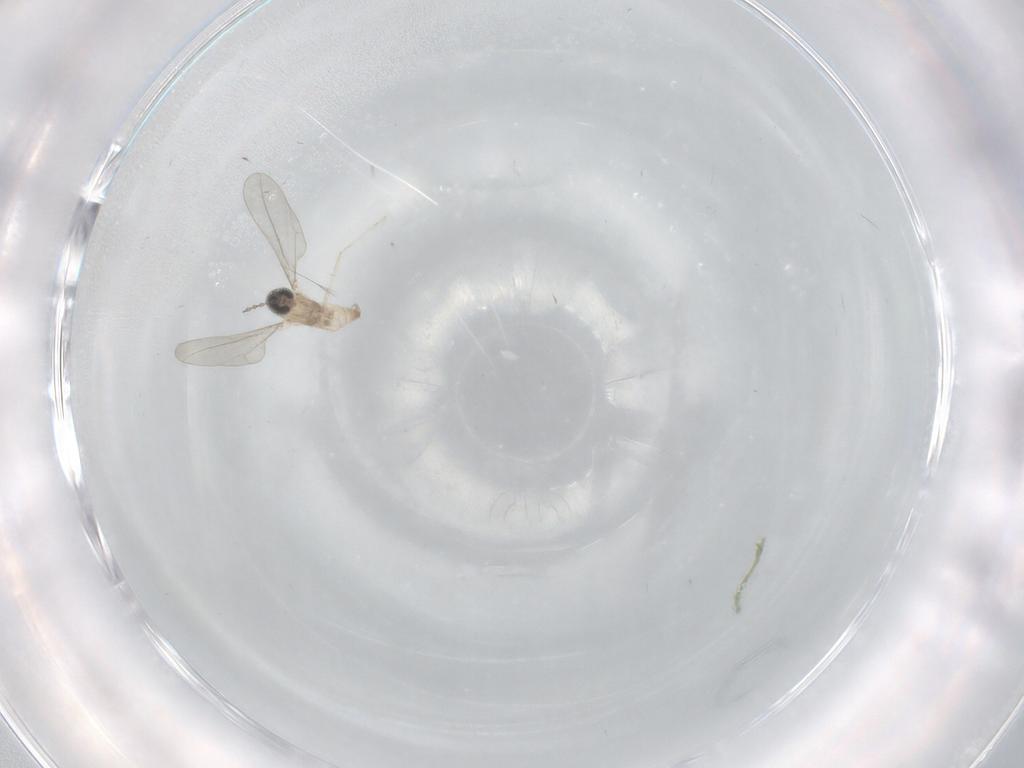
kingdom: Animalia
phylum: Arthropoda
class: Insecta
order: Diptera
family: Cecidomyiidae
